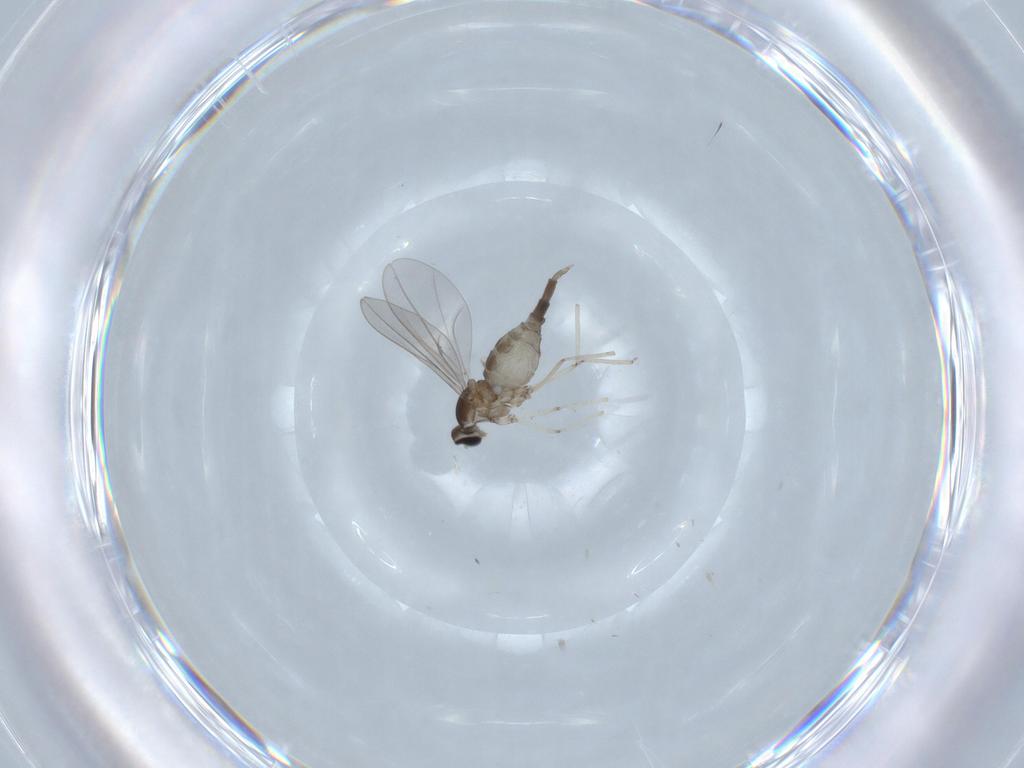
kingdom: Animalia
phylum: Arthropoda
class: Insecta
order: Diptera
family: Cecidomyiidae
